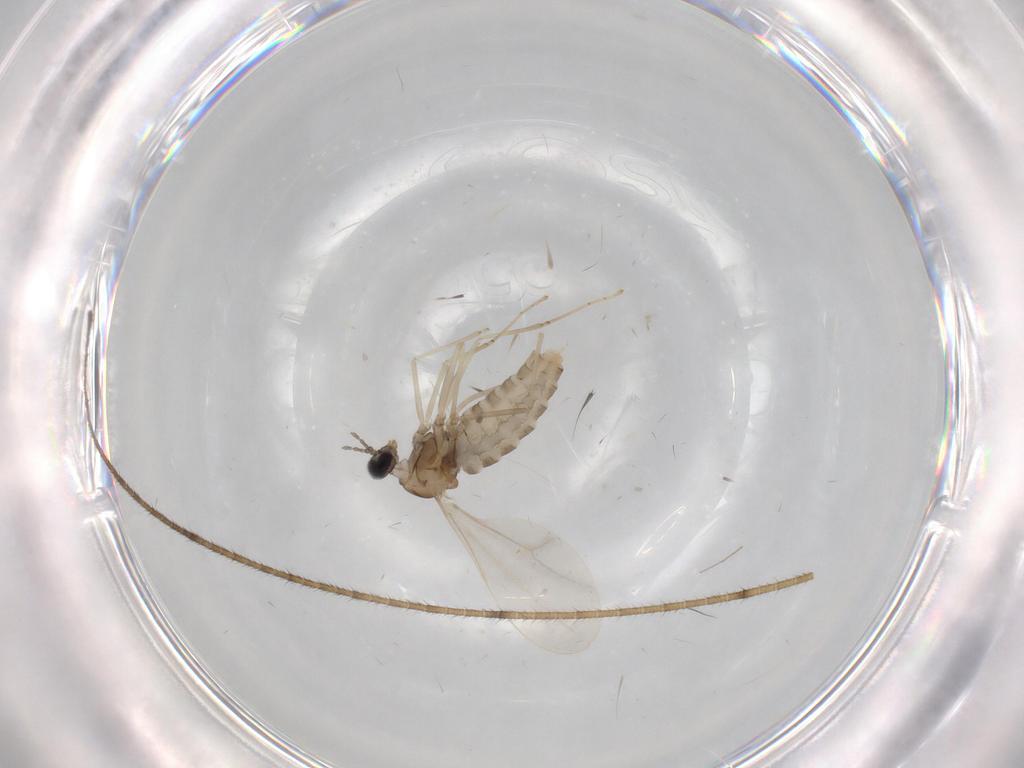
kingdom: Animalia
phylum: Arthropoda
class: Insecta
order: Diptera
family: Cecidomyiidae
